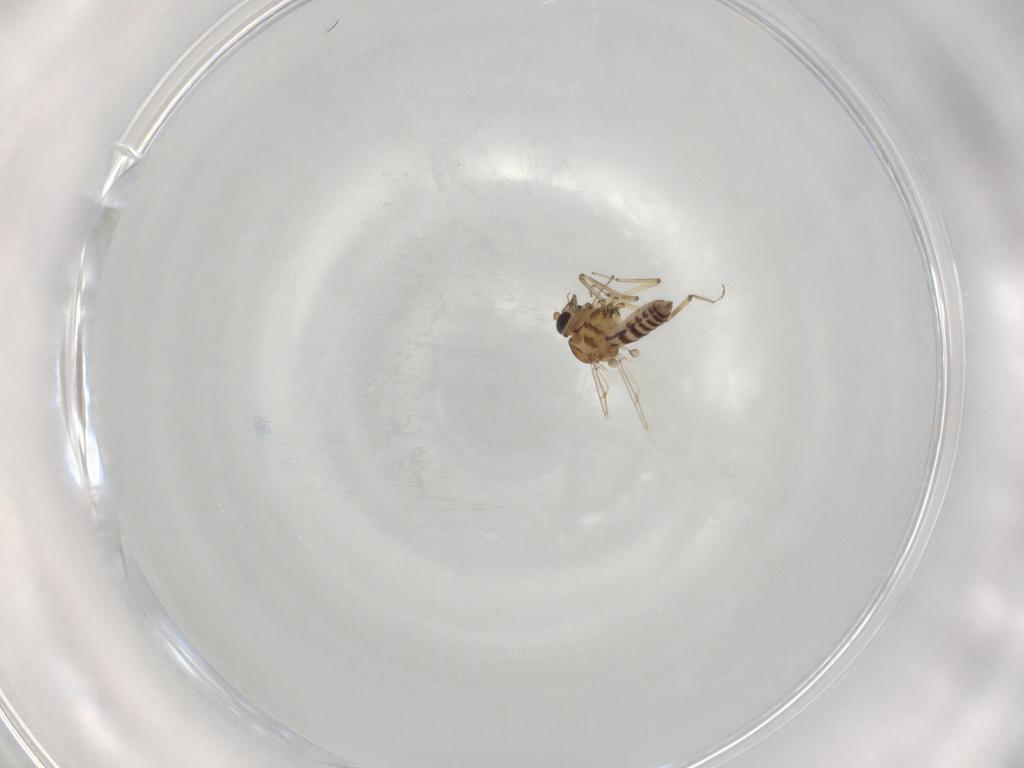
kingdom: Animalia
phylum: Arthropoda
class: Insecta
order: Diptera
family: Ceratopogonidae
